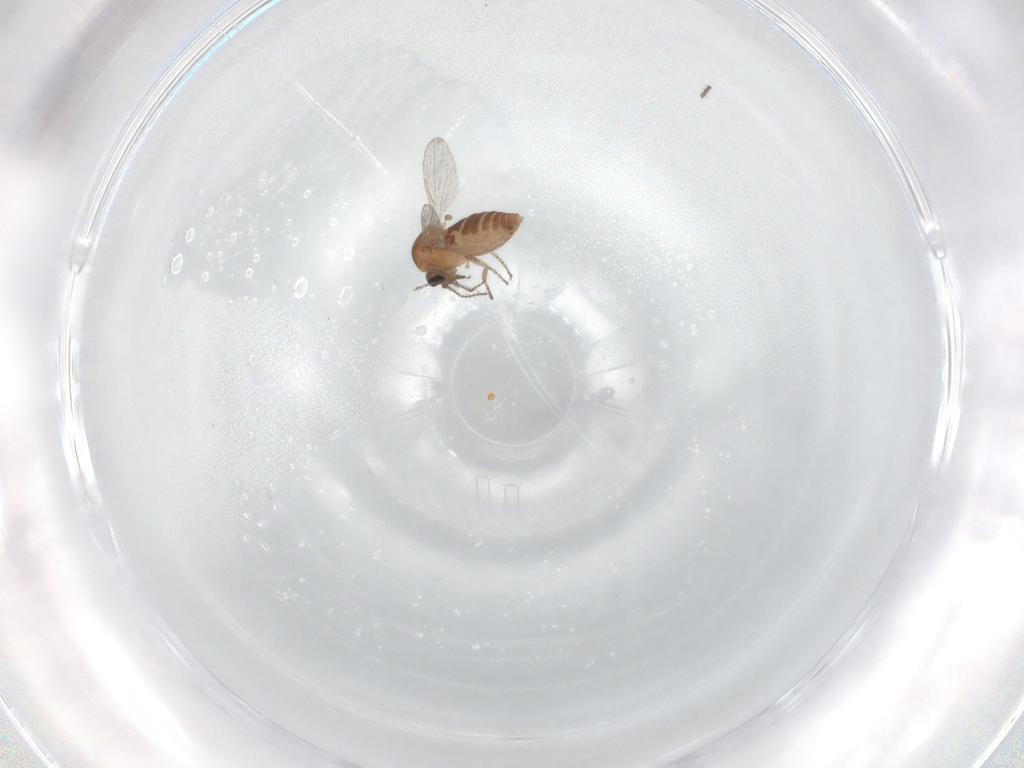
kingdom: Animalia
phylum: Arthropoda
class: Insecta
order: Diptera
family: Ceratopogonidae
